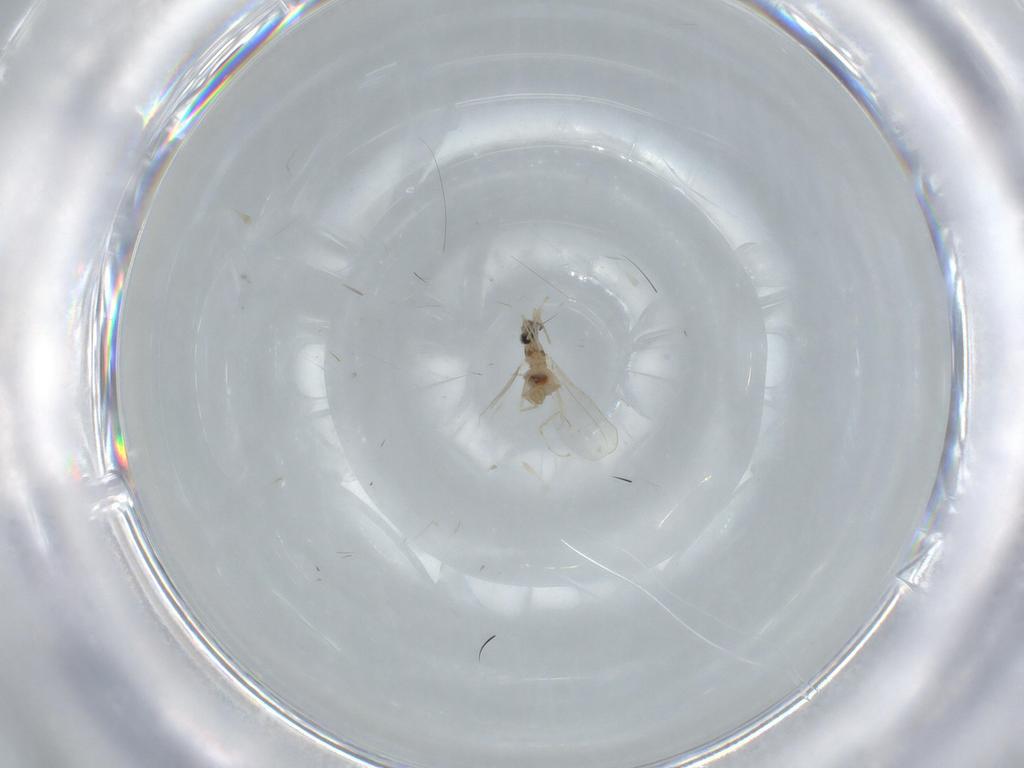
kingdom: Animalia
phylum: Arthropoda
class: Insecta
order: Diptera
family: Cecidomyiidae
